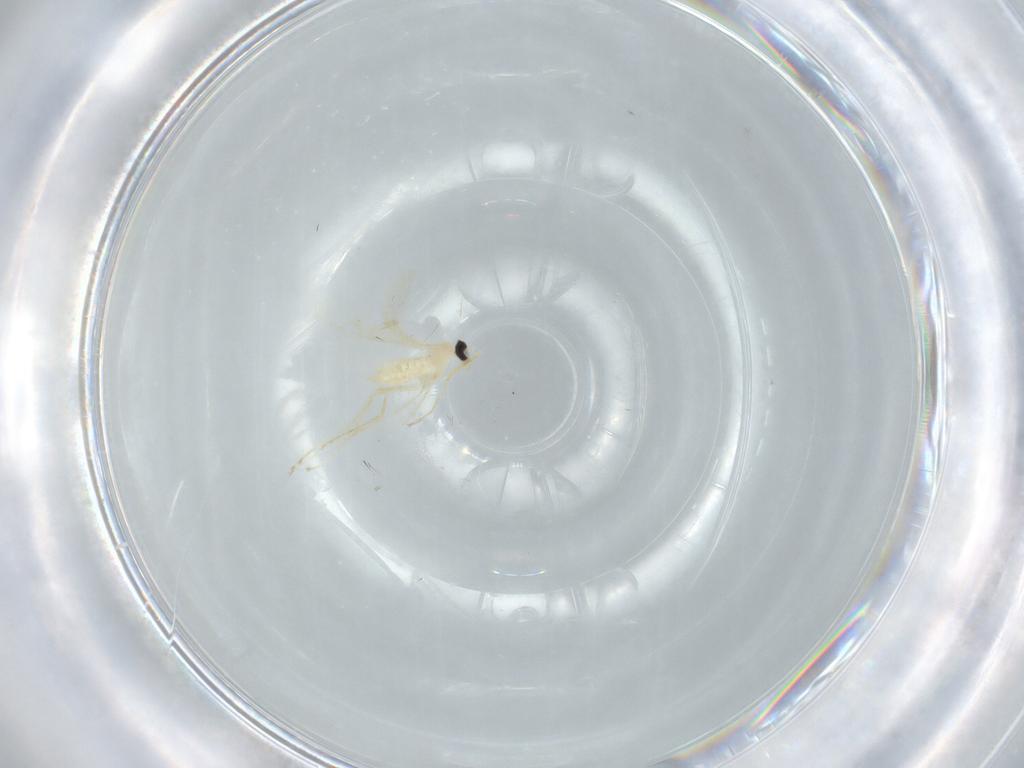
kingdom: Animalia
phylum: Arthropoda
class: Insecta
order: Diptera
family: Cecidomyiidae
